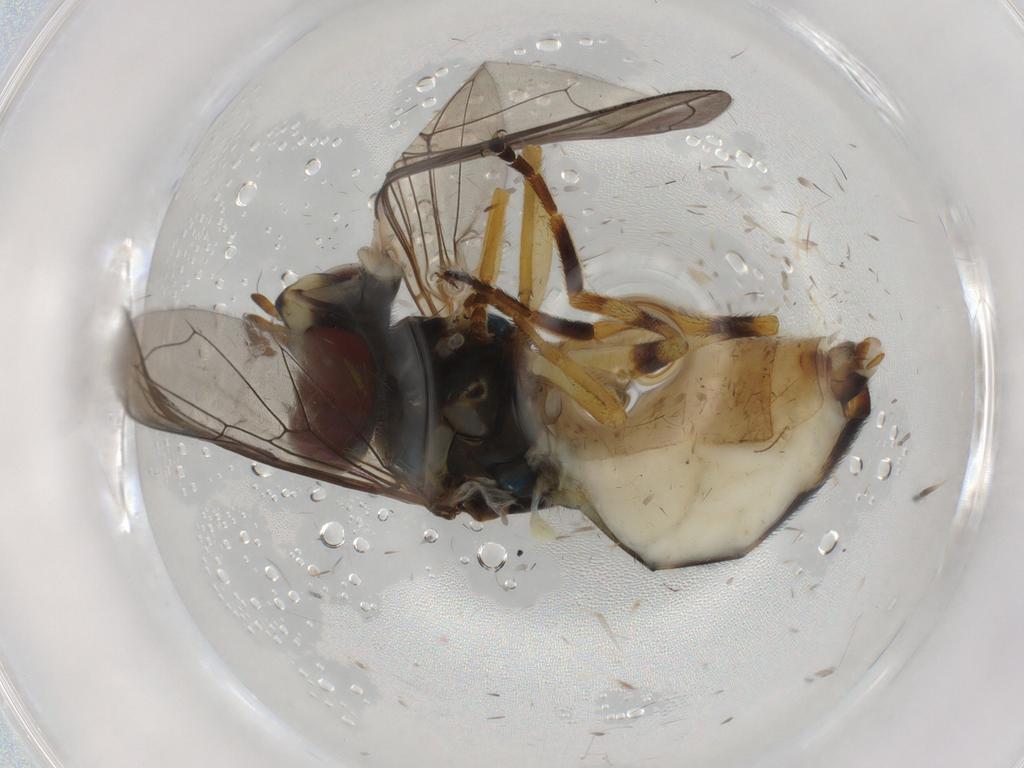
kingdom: Animalia
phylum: Arthropoda
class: Insecta
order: Diptera
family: Syrphidae
